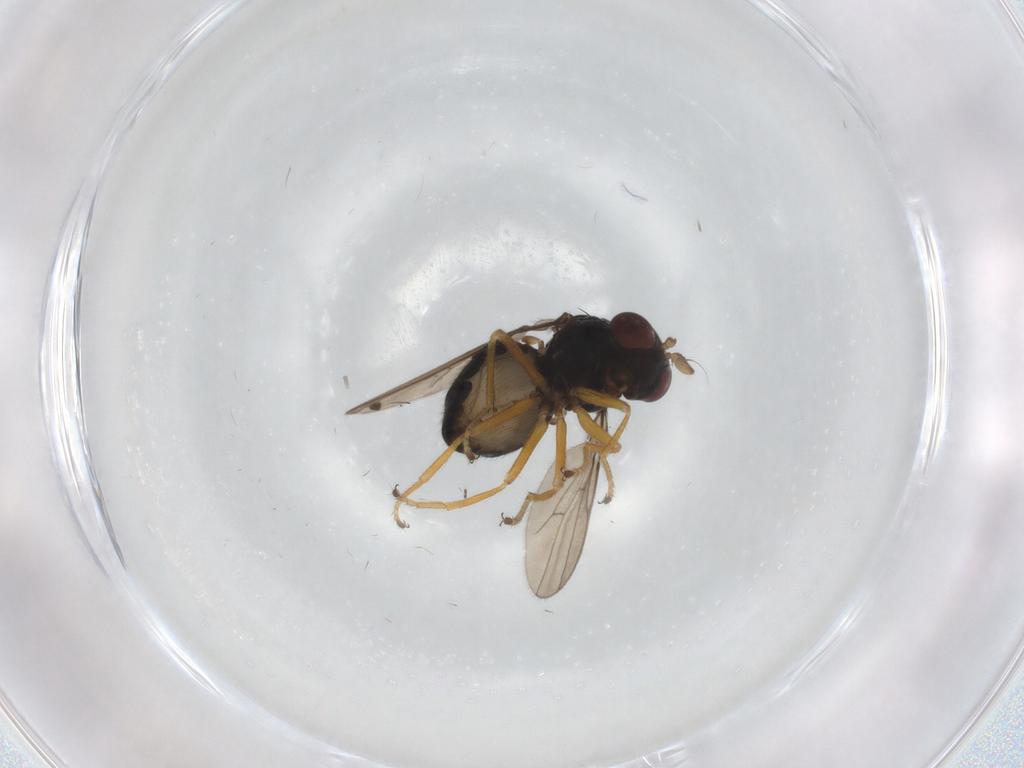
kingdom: Animalia
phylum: Arthropoda
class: Insecta
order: Diptera
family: Ephydridae
